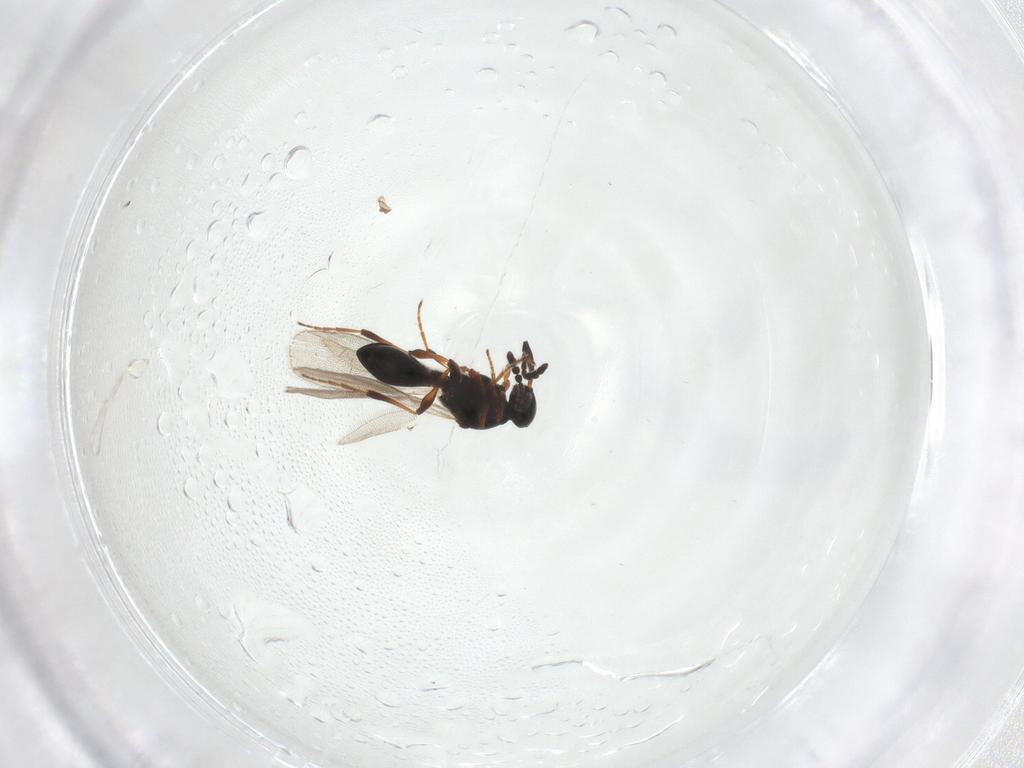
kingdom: Animalia
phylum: Arthropoda
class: Insecta
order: Hymenoptera
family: Platygastridae
